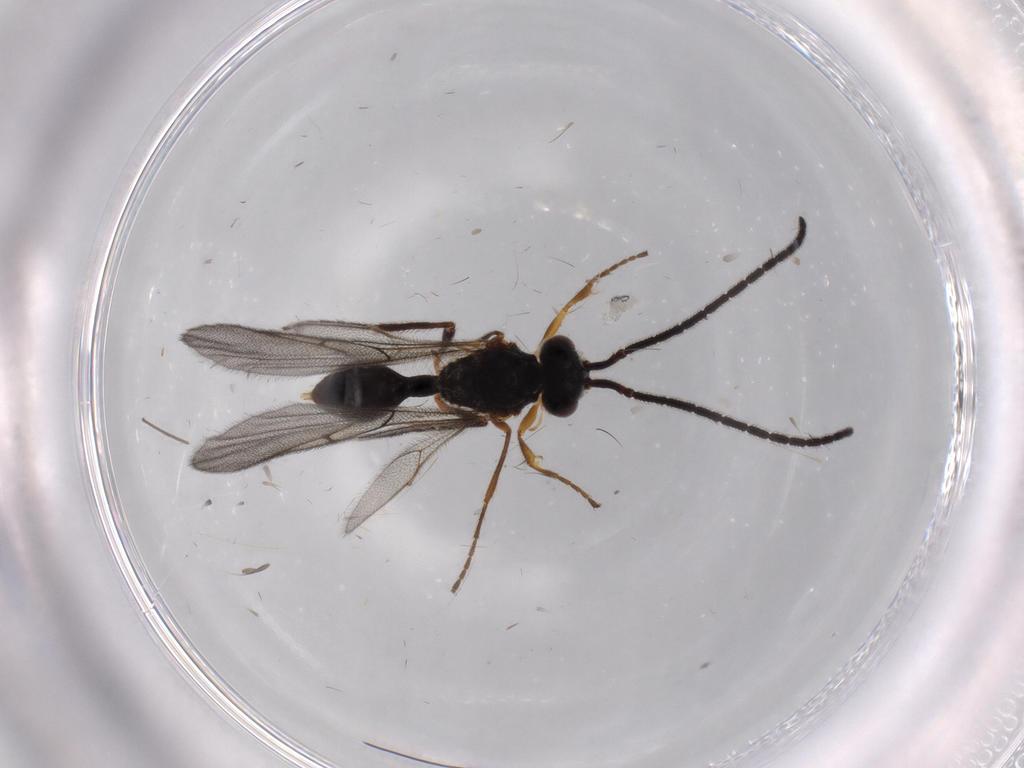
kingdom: Animalia
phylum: Arthropoda
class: Insecta
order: Hymenoptera
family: Diapriidae
